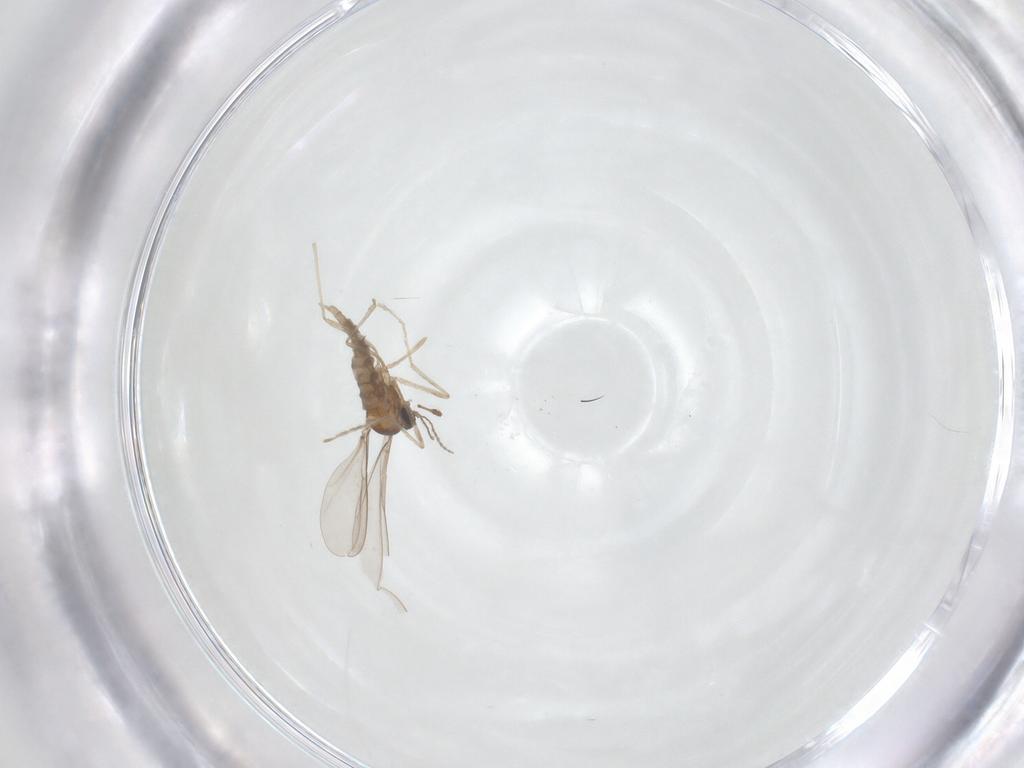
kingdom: Animalia
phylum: Arthropoda
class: Insecta
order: Diptera
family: Cecidomyiidae
